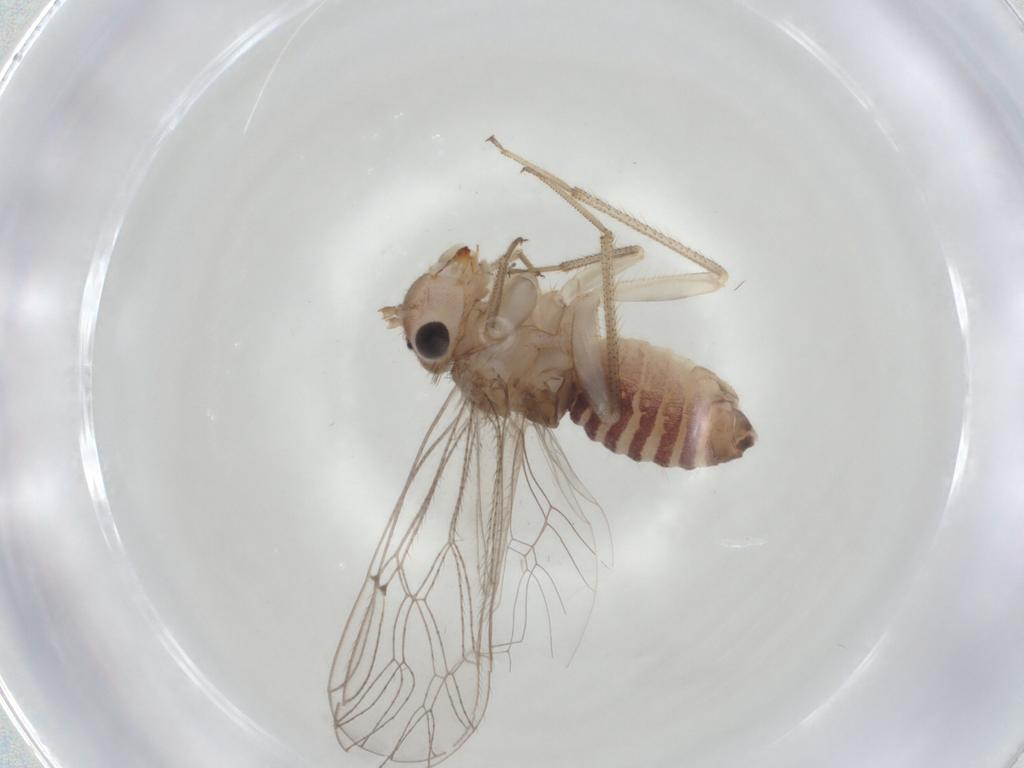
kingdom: Animalia
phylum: Arthropoda
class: Insecta
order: Psocodea
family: Philotarsidae
